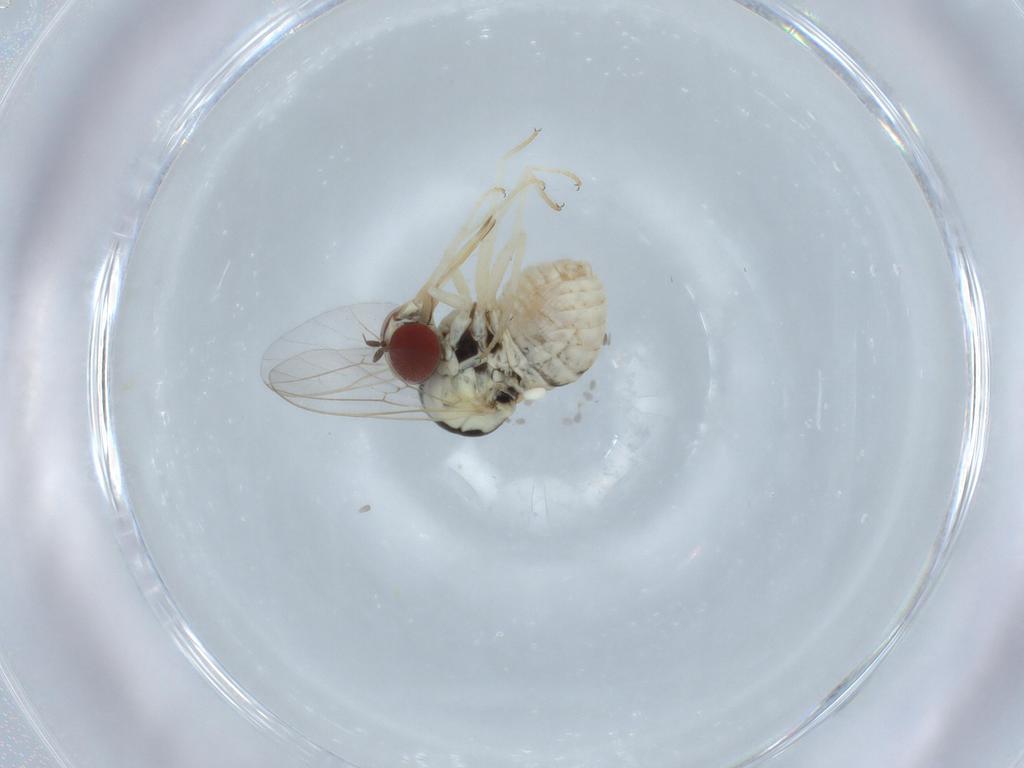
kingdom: Animalia
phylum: Arthropoda
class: Insecta
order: Diptera
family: Bombyliidae
